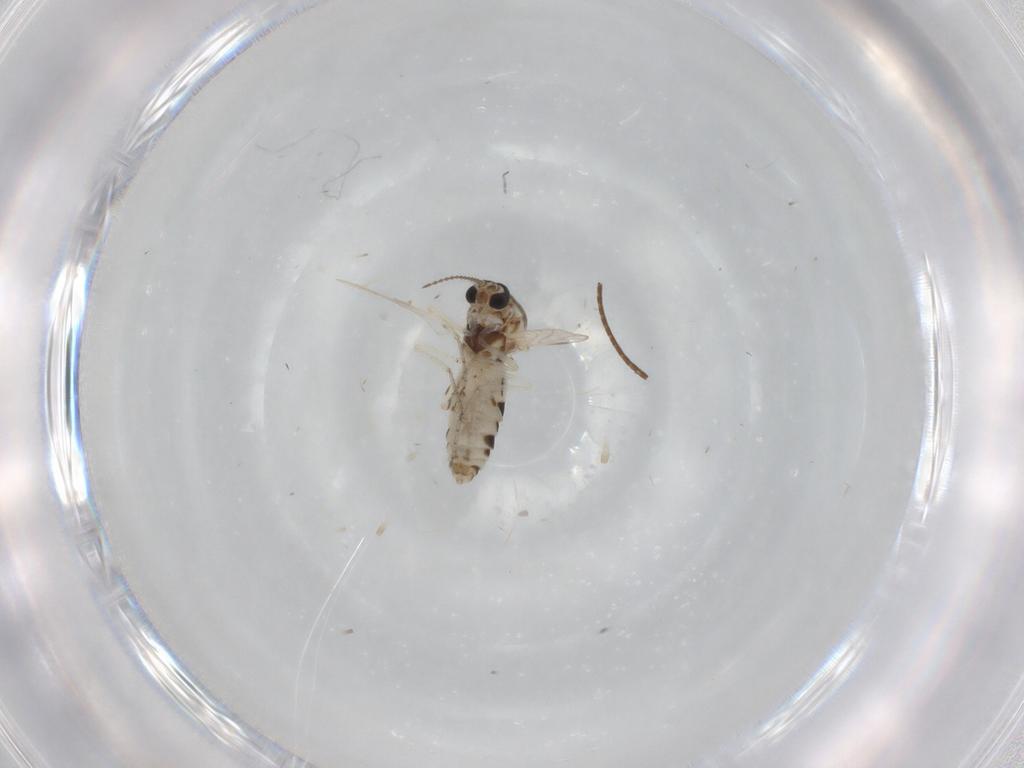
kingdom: Animalia
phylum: Arthropoda
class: Insecta
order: Diptera
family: Ceratopogonidae
